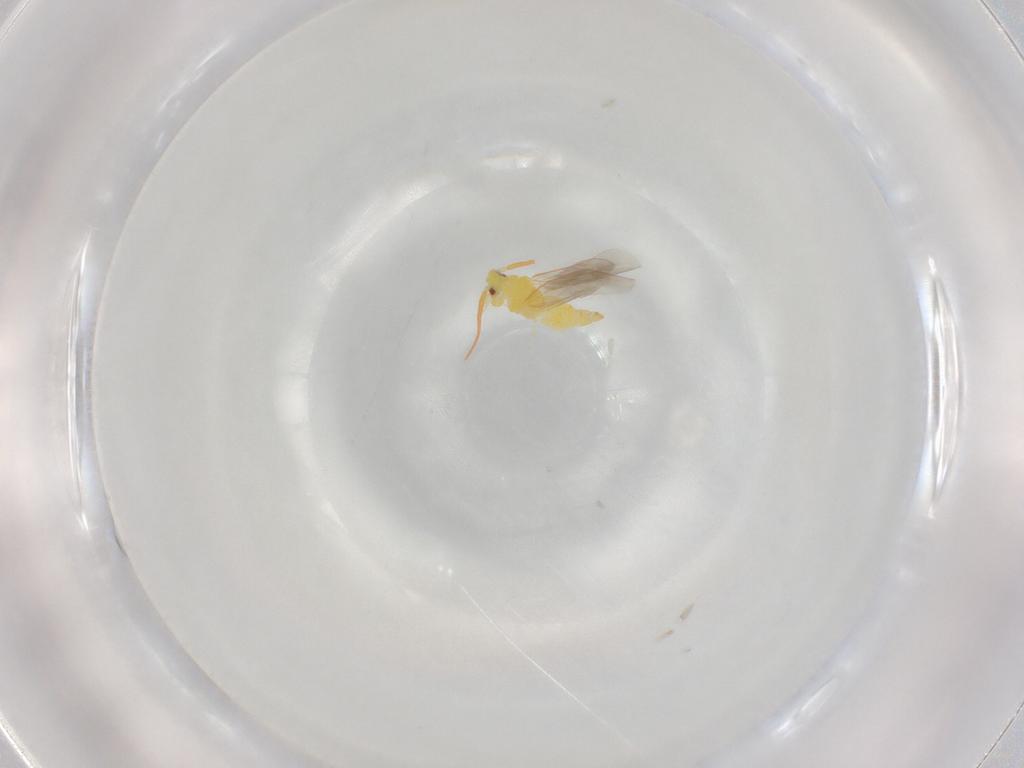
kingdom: Animalia
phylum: Arthropoda
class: Insecta
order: Hemiptera
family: Aleyrodidae
